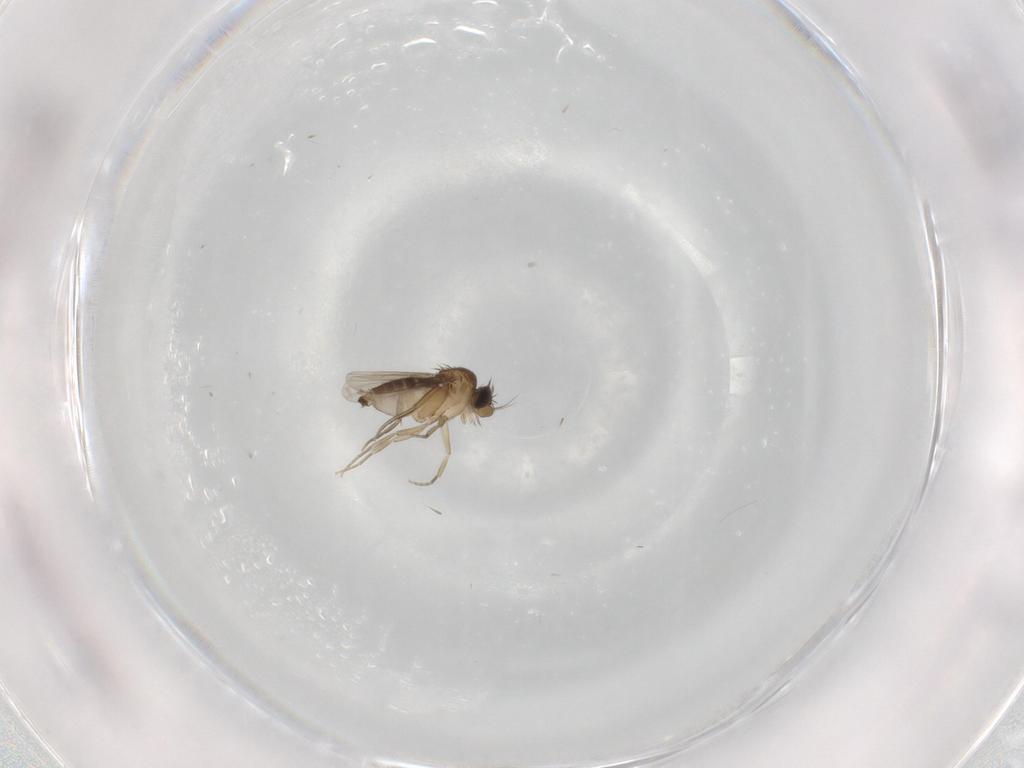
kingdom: Animalia
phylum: Arthropoda
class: Insecta
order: Diptera
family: Phoridae
